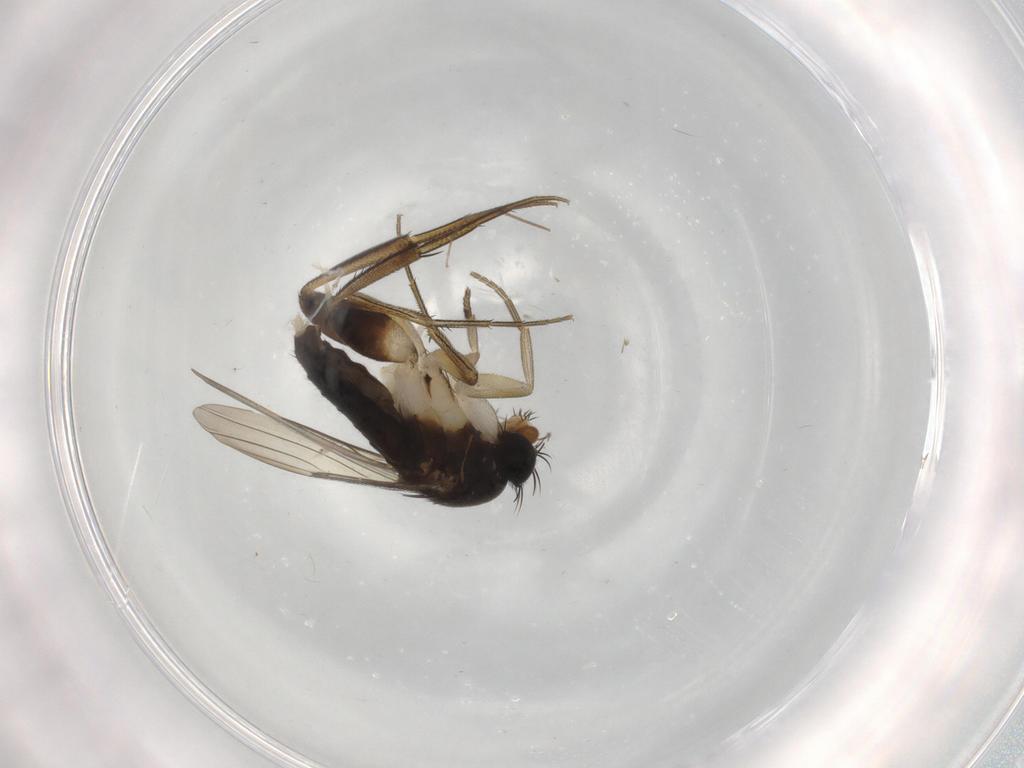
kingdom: Animalia
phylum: Arthropoda
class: Insecta
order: Diptera
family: Phoridae
